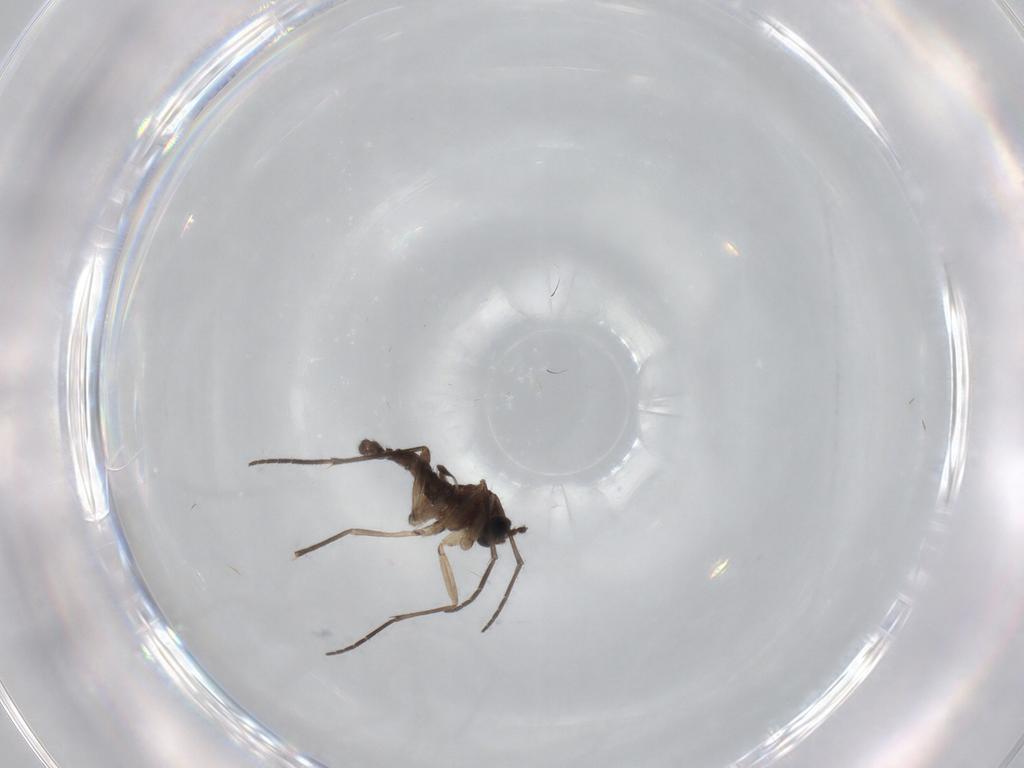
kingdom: Animalia
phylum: Arthropoda
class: Insecta
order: Diptera
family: Sciaridae
